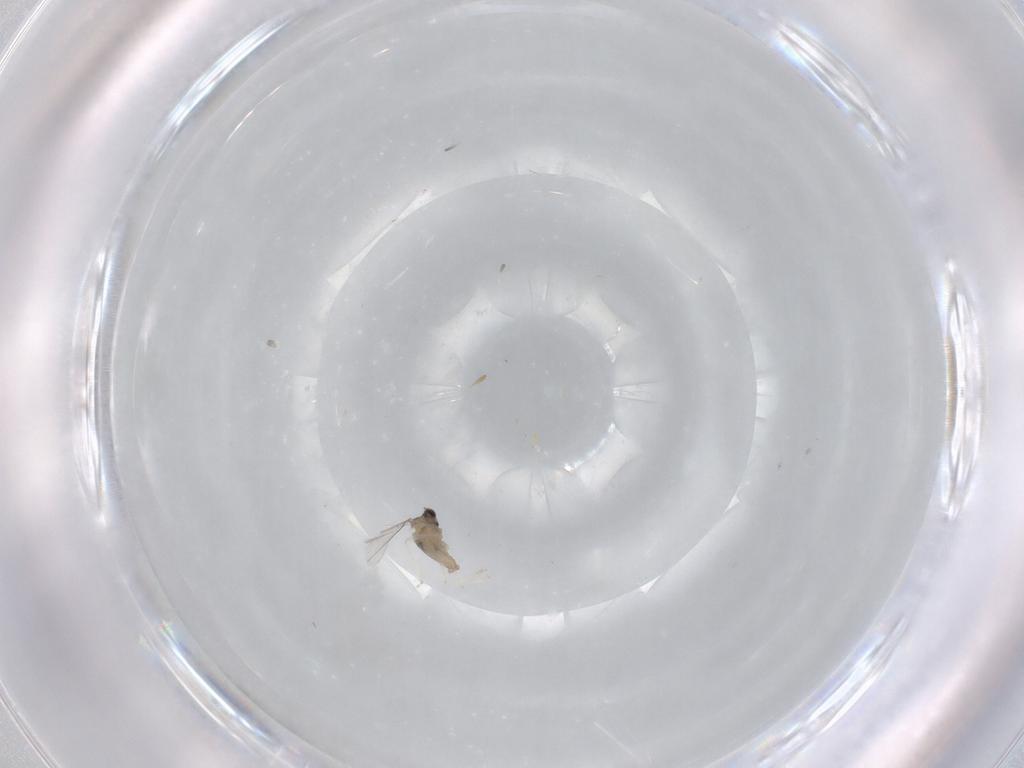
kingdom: Animalia
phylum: Arthropoda
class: Insecta
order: Diptera
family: Cecidomyiidae
